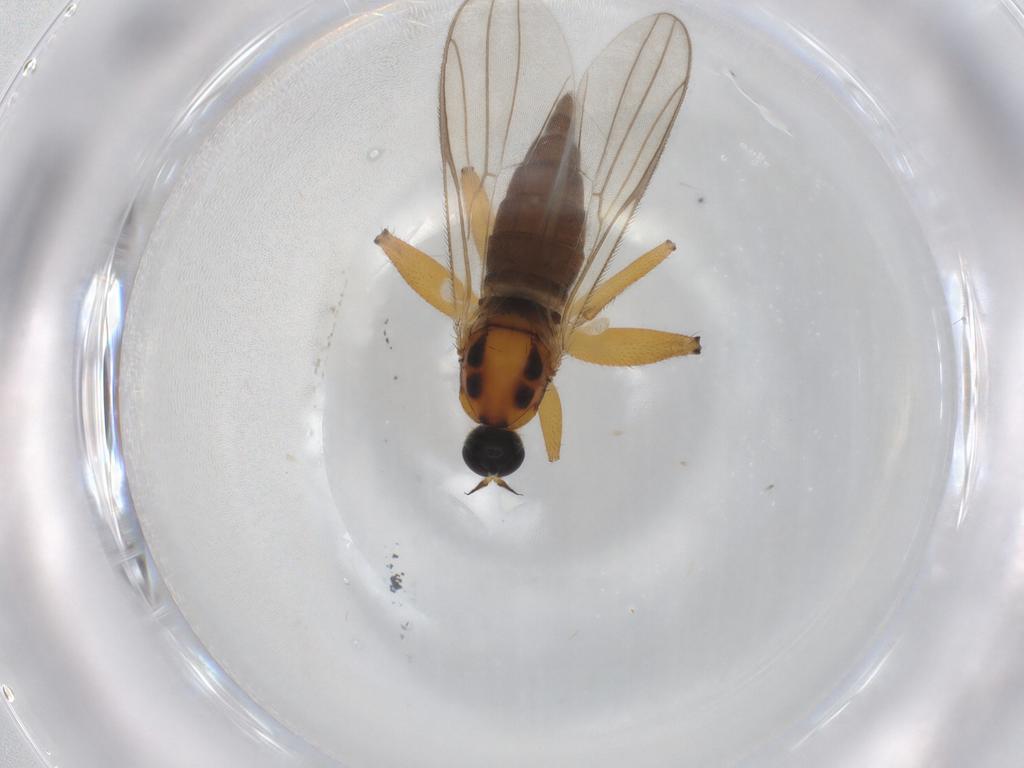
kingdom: Animalia
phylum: Arthropoda
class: Insecta
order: Diptera
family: Hybotidae
